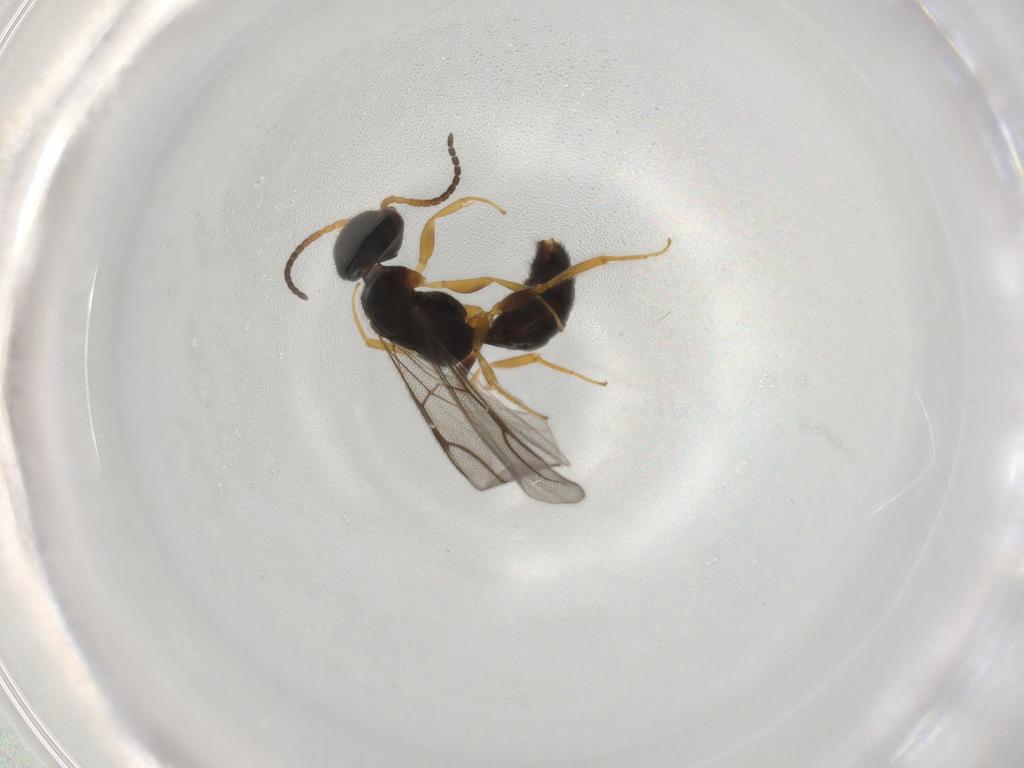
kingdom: Animalia
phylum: Arthropoda
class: Insecta
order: Hymenoptera
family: Bethylidae
